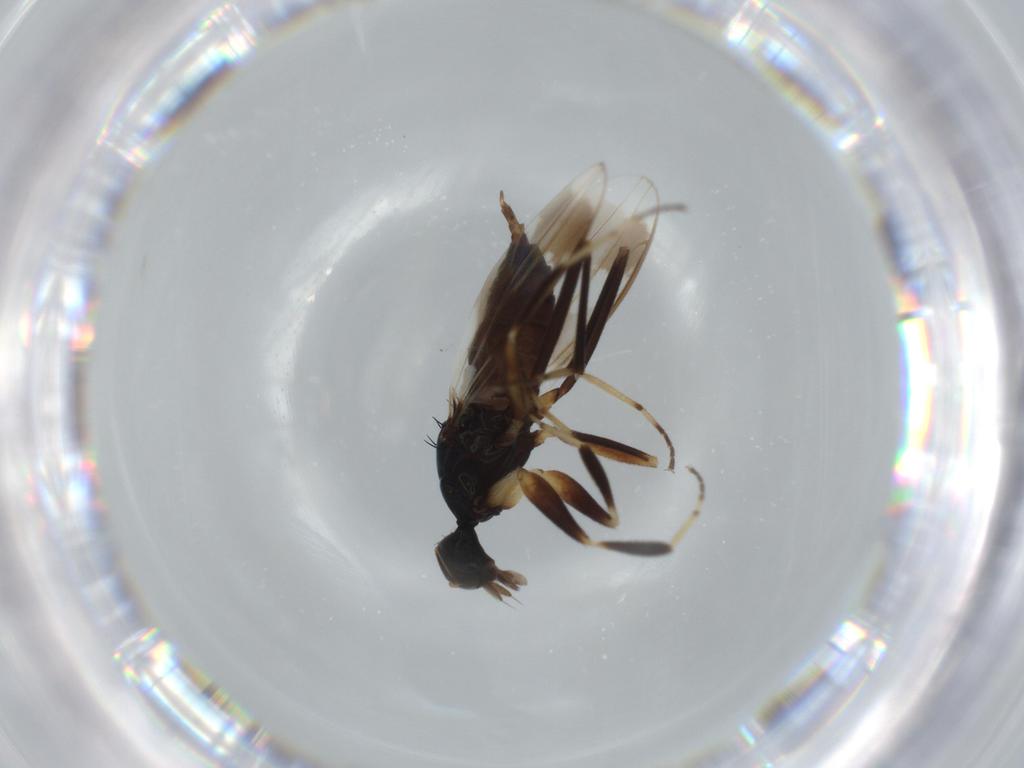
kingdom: Animalia
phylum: Arthropoda
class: Insecta
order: Diptera
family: Hybotidae
